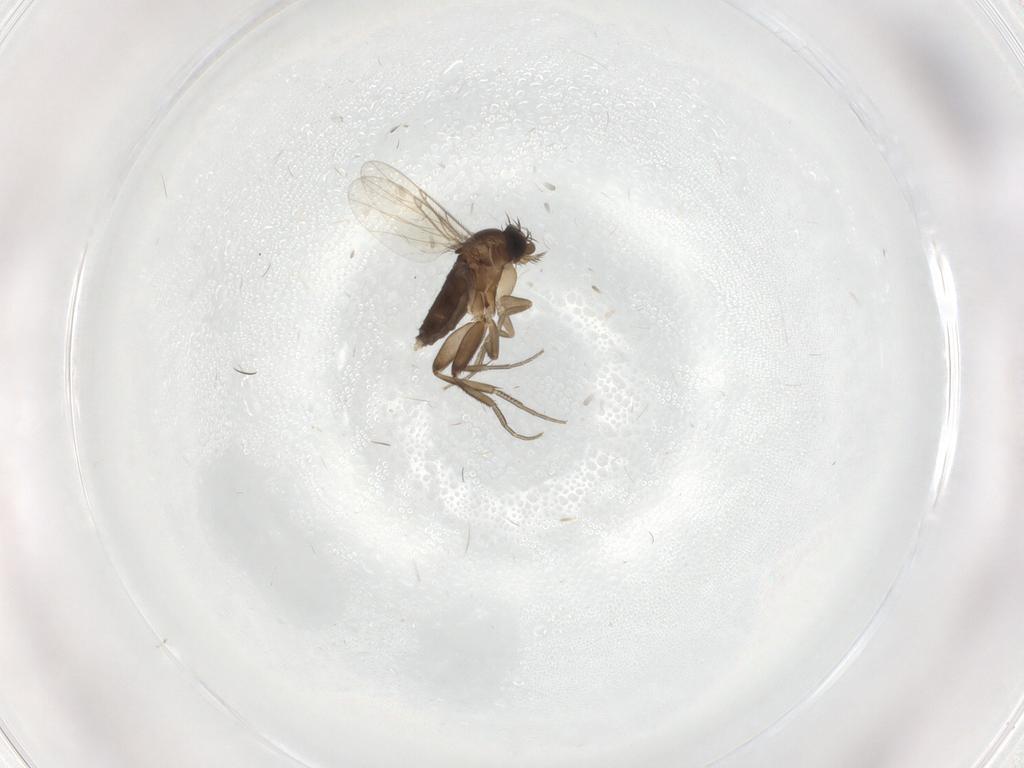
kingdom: Animalia
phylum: Arthropoda
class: Insecta
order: Diptera
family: Phoridae
